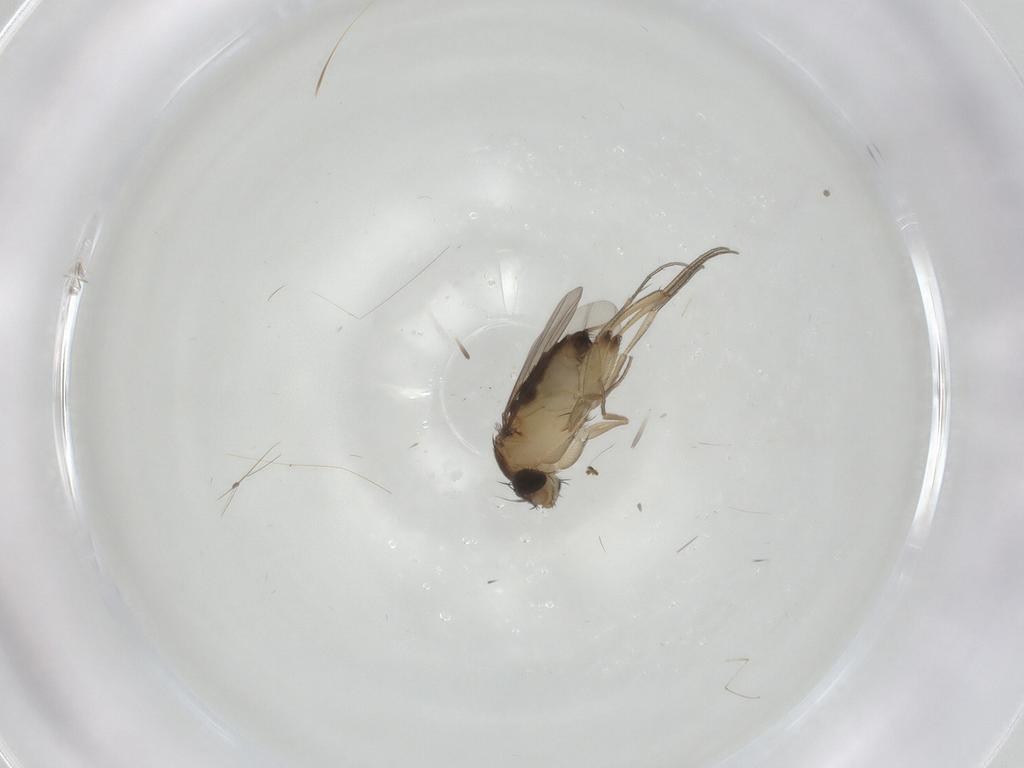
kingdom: Animalia
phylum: Arthropoda
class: Insecta
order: Diptera
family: Phoridae
